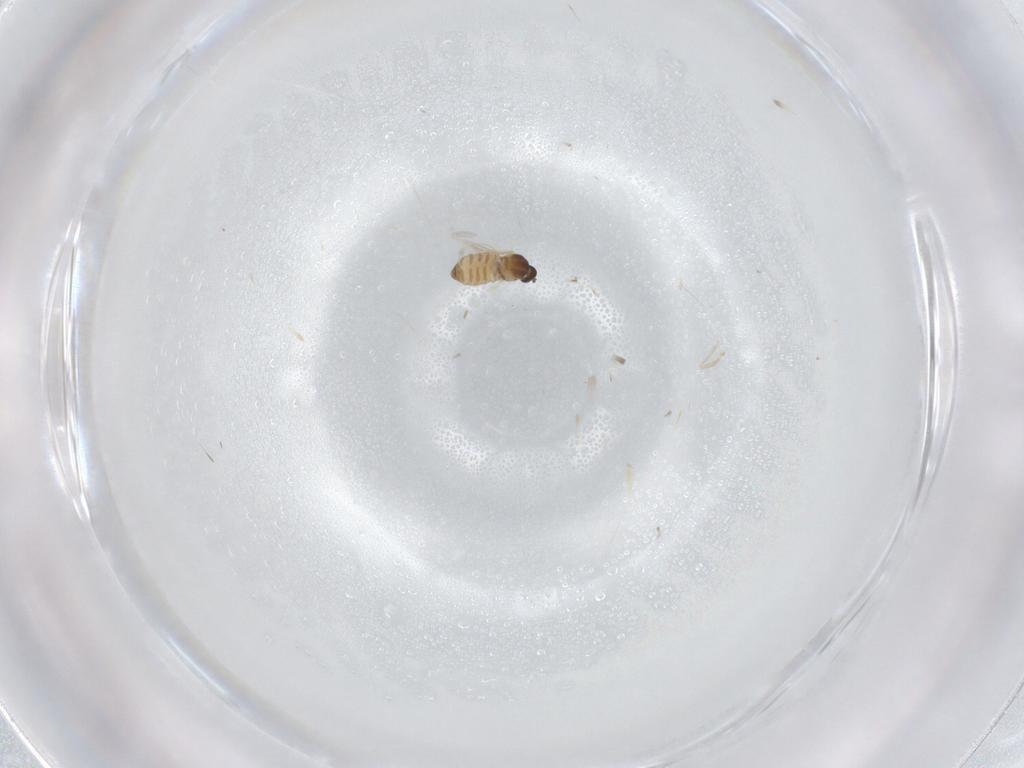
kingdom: Animalia
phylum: Arthropoda
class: Insecta
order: Diptera
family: Cecidomyiidae
